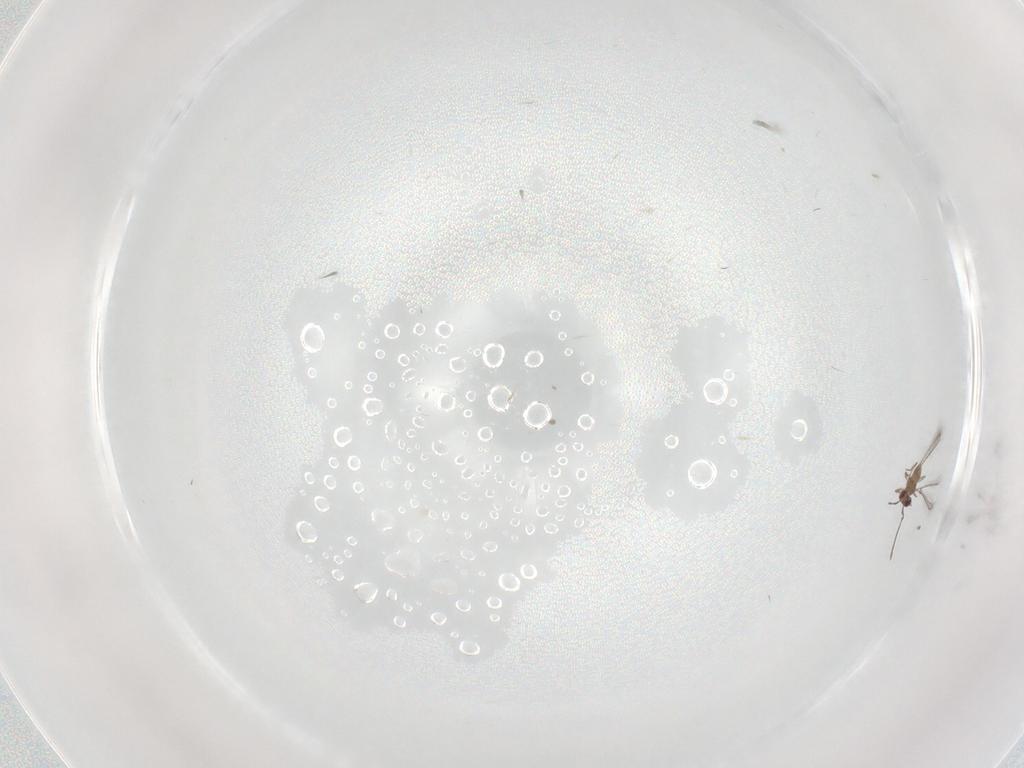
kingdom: Animalia
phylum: Arthropoda
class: Insecta
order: Hymenoptera
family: Mymaridae
